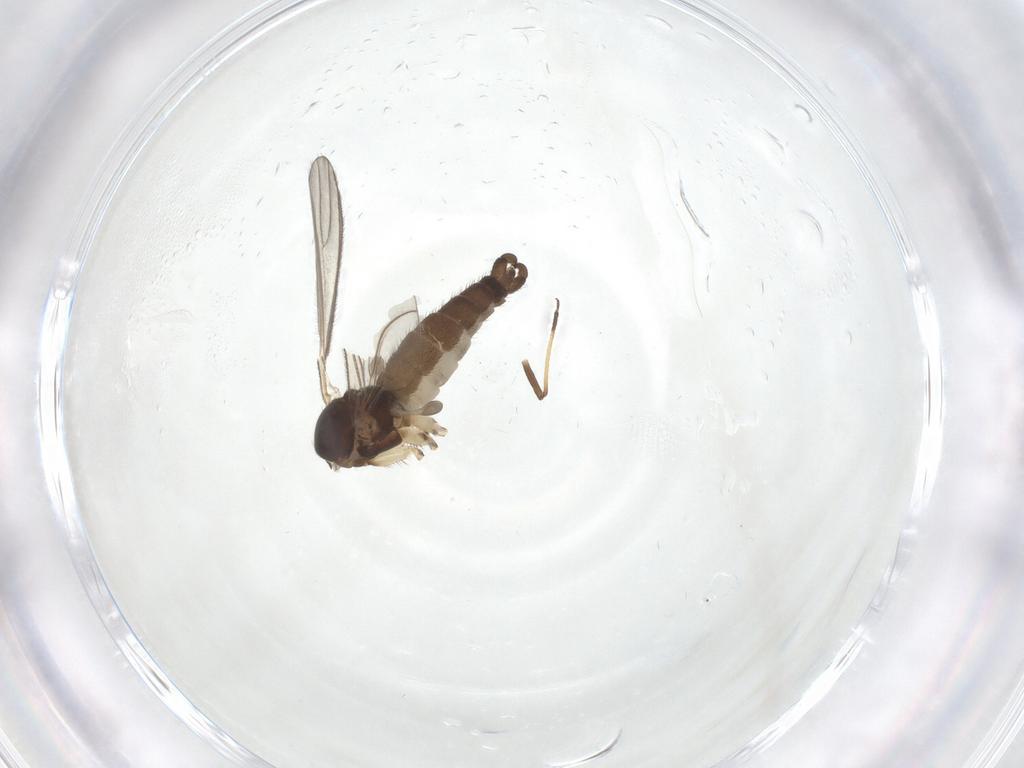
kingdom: Animalia
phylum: Arthropoda
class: Insecta
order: Diptera
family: Sciaridae
